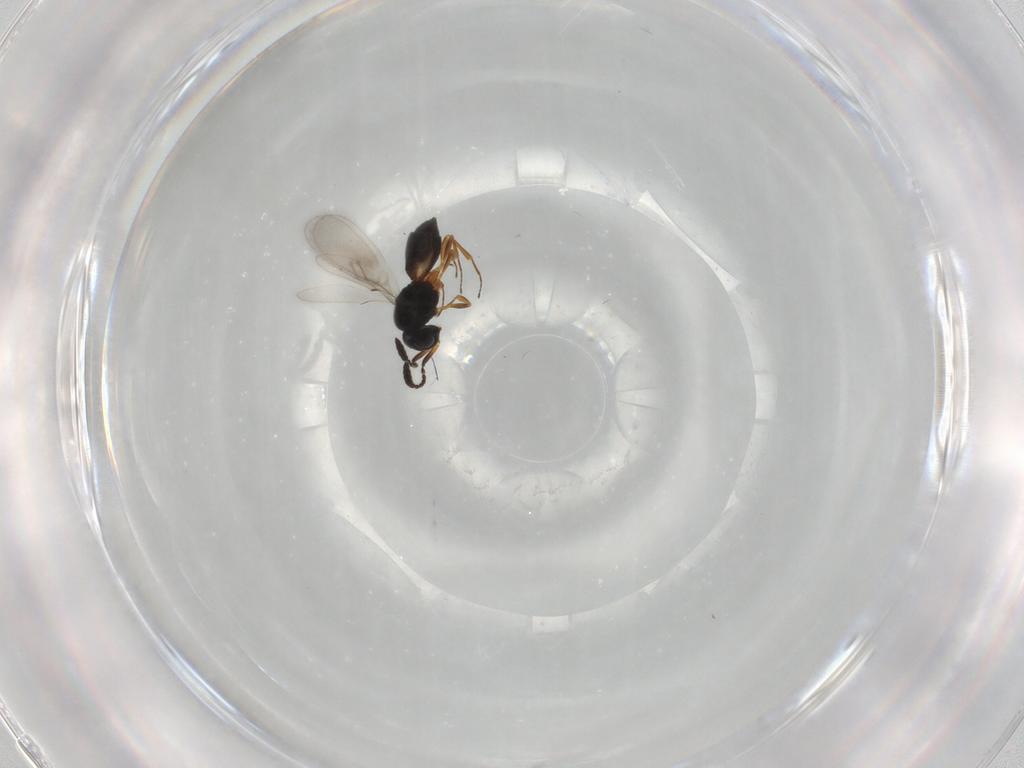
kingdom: Animalia
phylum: Arthropoda
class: Insecta
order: Hymenoptera
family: Scelionidae
